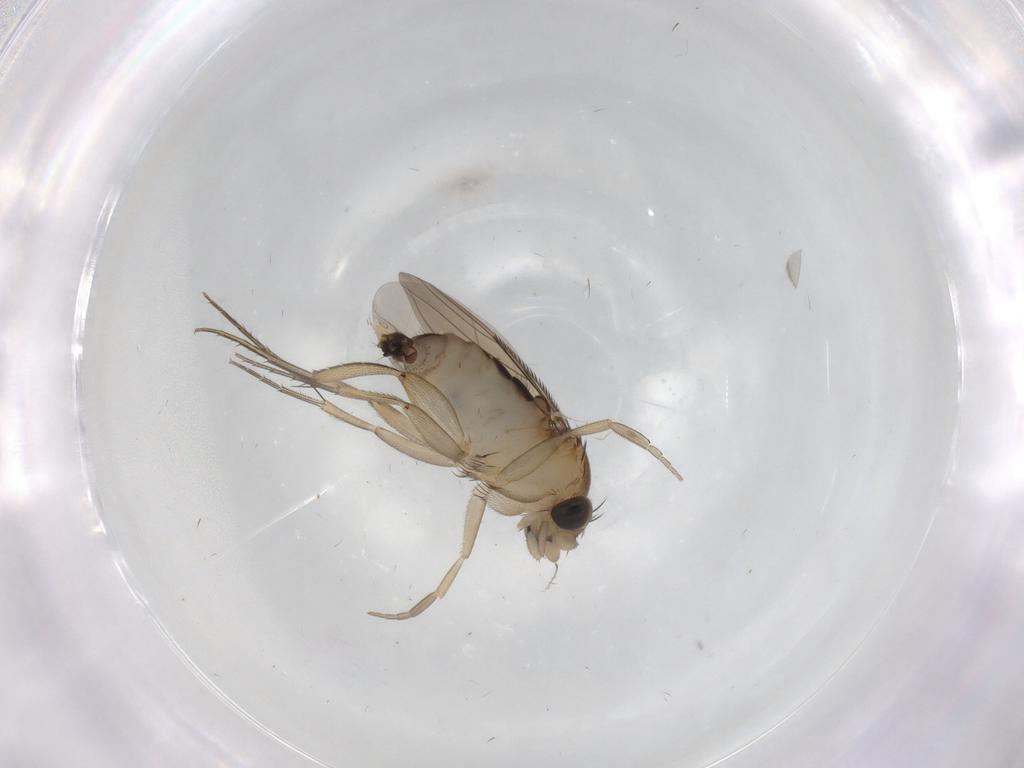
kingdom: Animalia
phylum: Arthropoda
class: Insecta
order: Diptera
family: Phoridae
